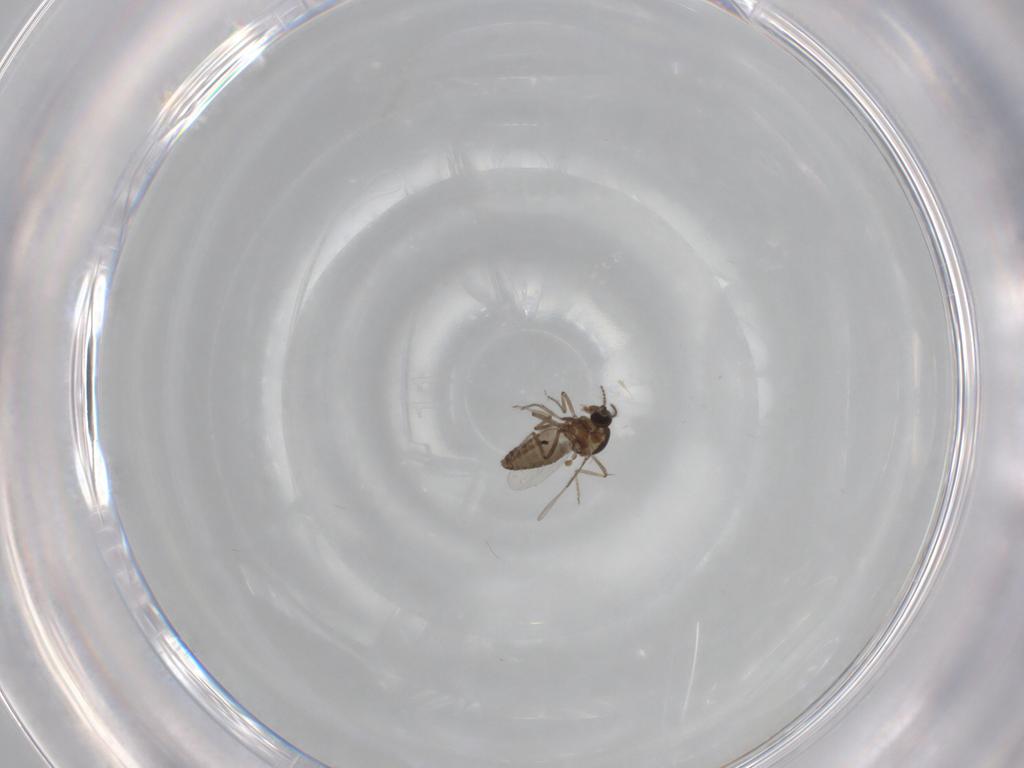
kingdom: Animalia
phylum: Arthropoda
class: Insecta
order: Diptera
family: Ceratopogonidae
